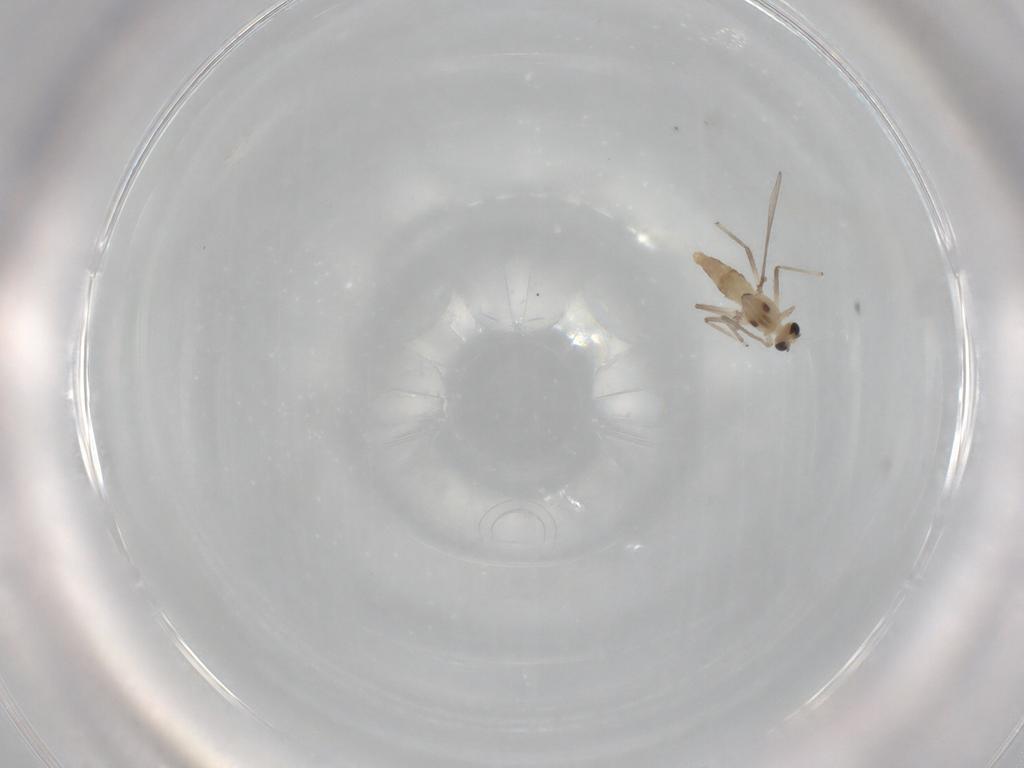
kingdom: Animalia
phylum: Arthropoda
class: Insecta
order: Diptera
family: Chironomidae
